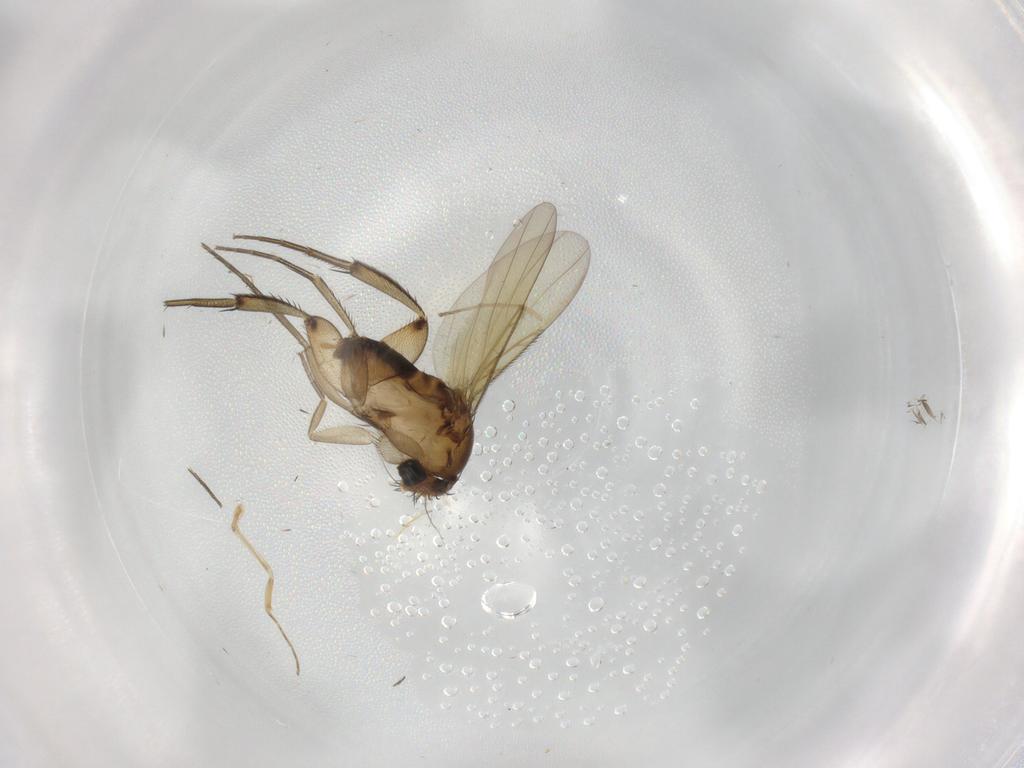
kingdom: Animalia
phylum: Arthropoda
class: Insecta
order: Diptera
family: Phoridae
